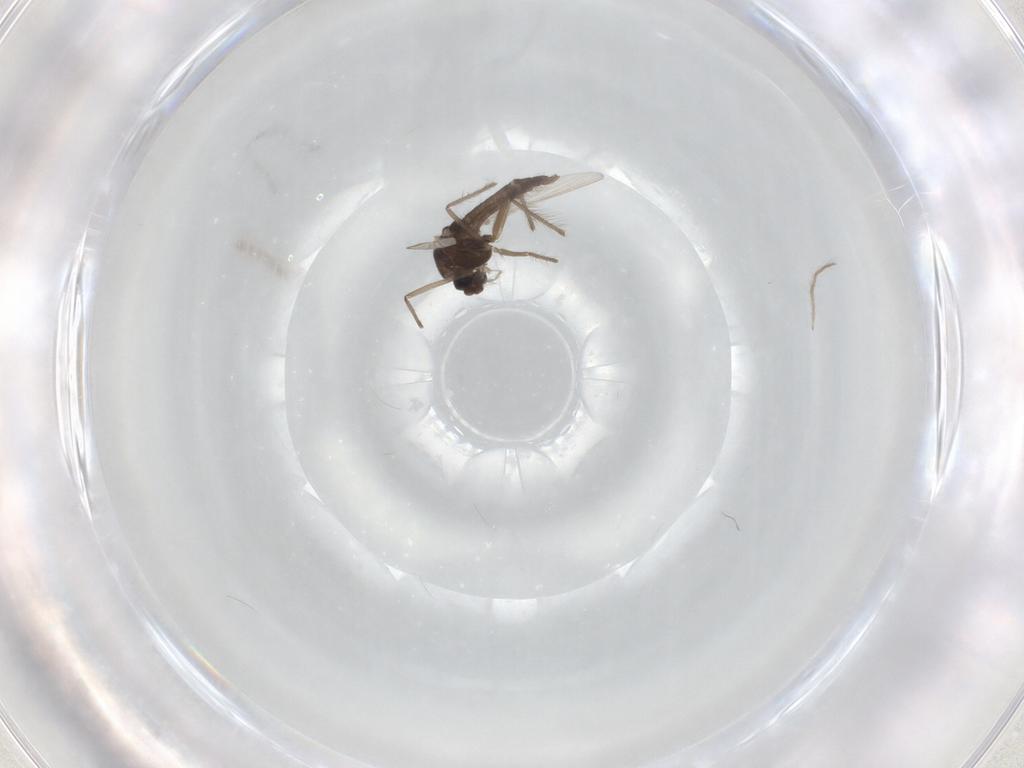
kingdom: Animalia
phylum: Arthropoda
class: Insecta
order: Diptera
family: Chironomidae
